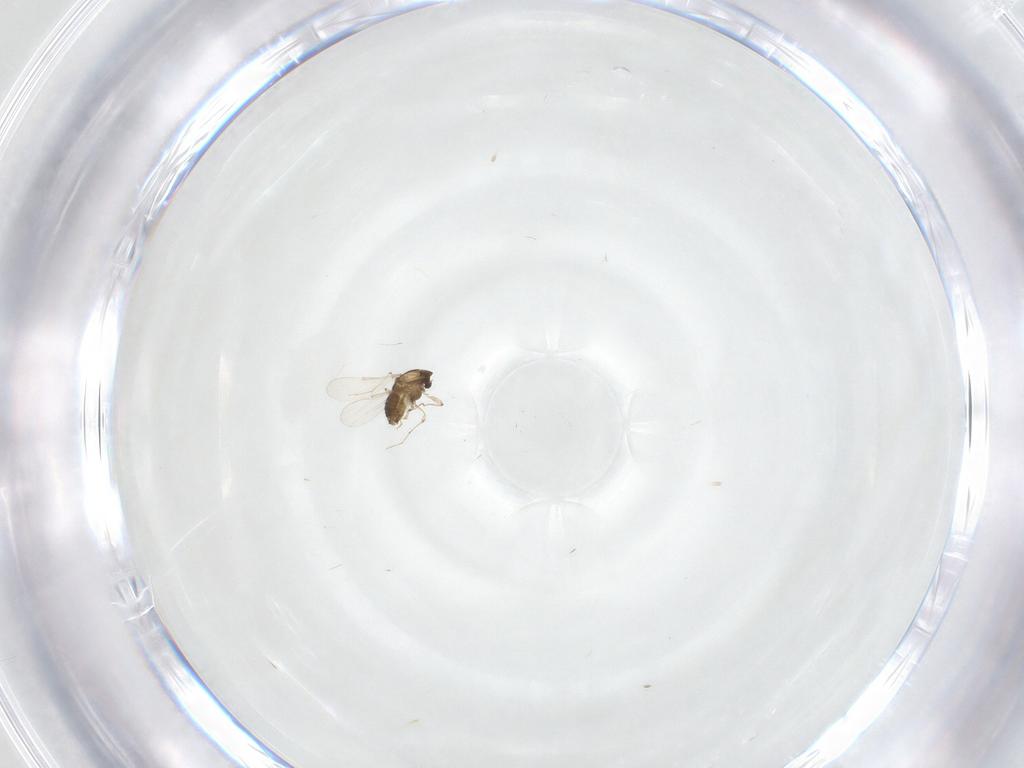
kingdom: Animalia
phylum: Arthropoda
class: Insecta
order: Diptera
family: Chironomidae
